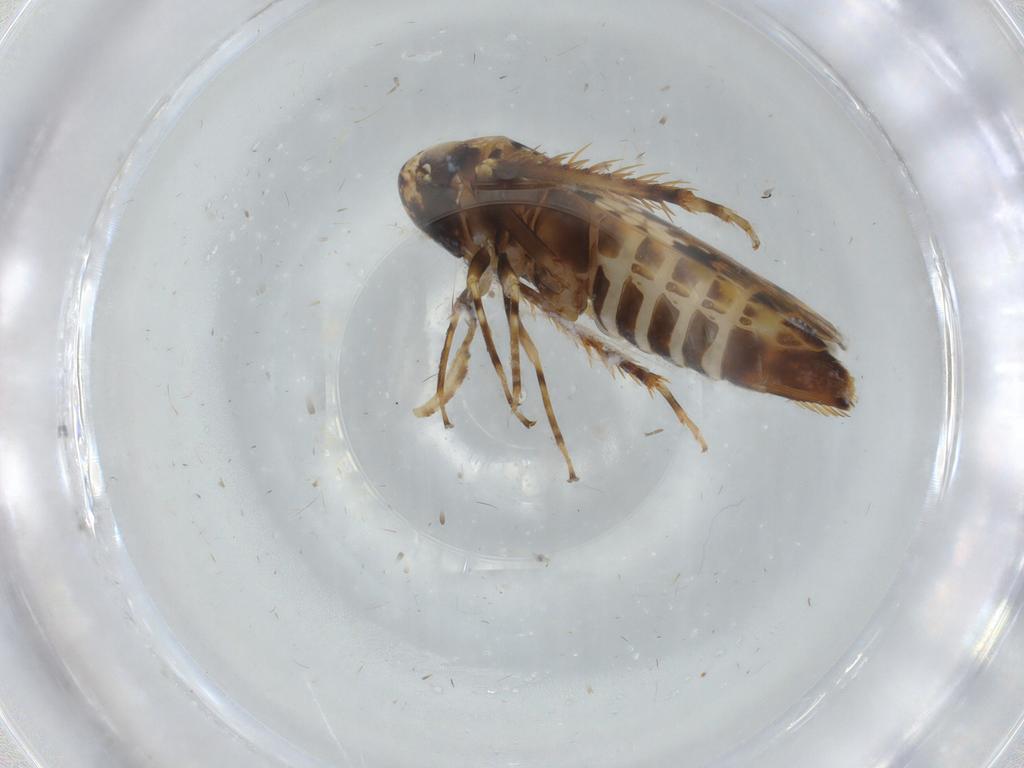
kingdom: Animalia
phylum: Arthropoda
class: Insecta
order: Hemiptera
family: Cicadellidae
